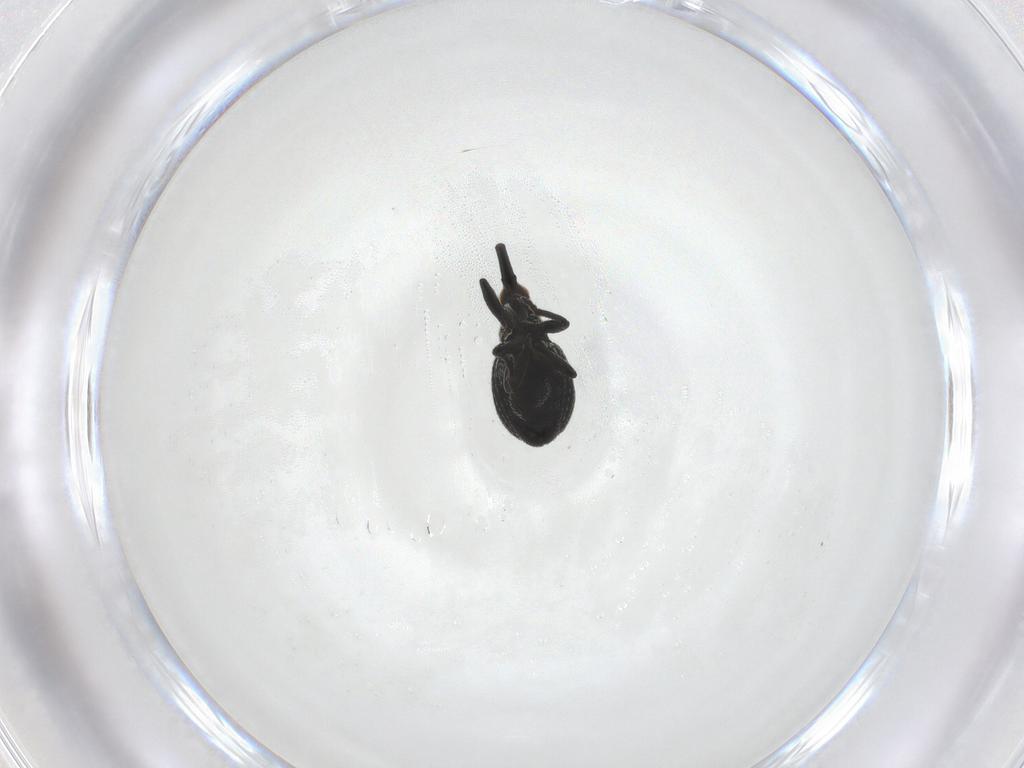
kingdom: Animalia
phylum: Arthropoda
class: Insecta
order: Coleoptera
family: Brentidae
